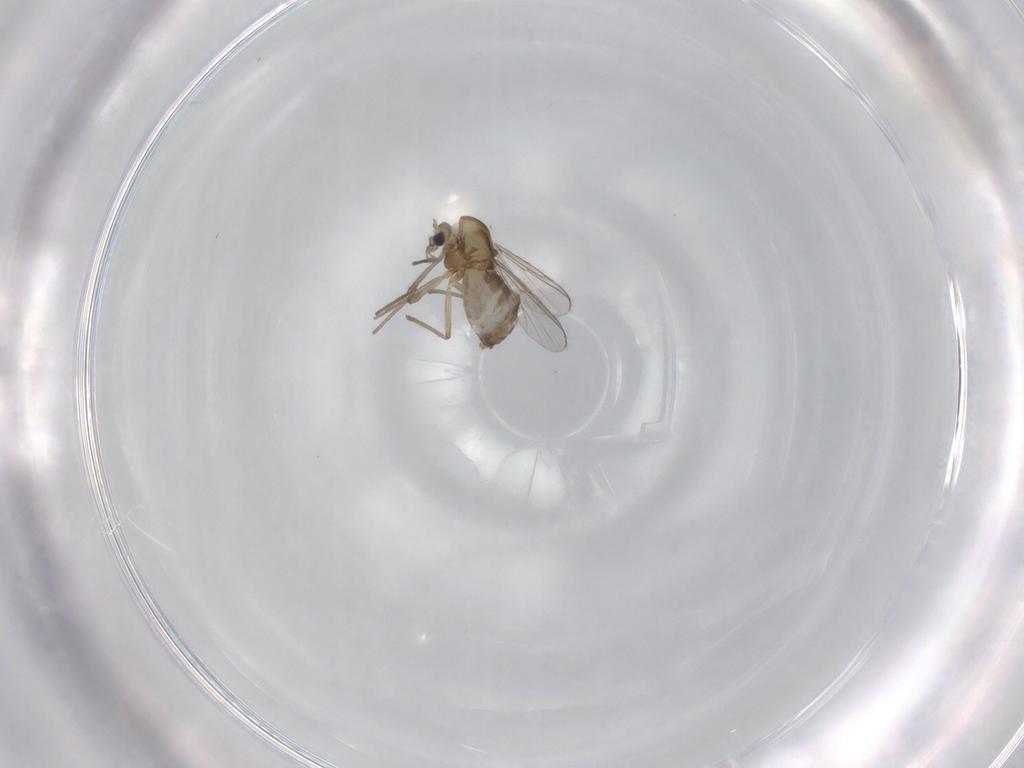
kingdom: Animalia
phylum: Arthropoda
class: Insecta
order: Diptera
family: Chironomidae
